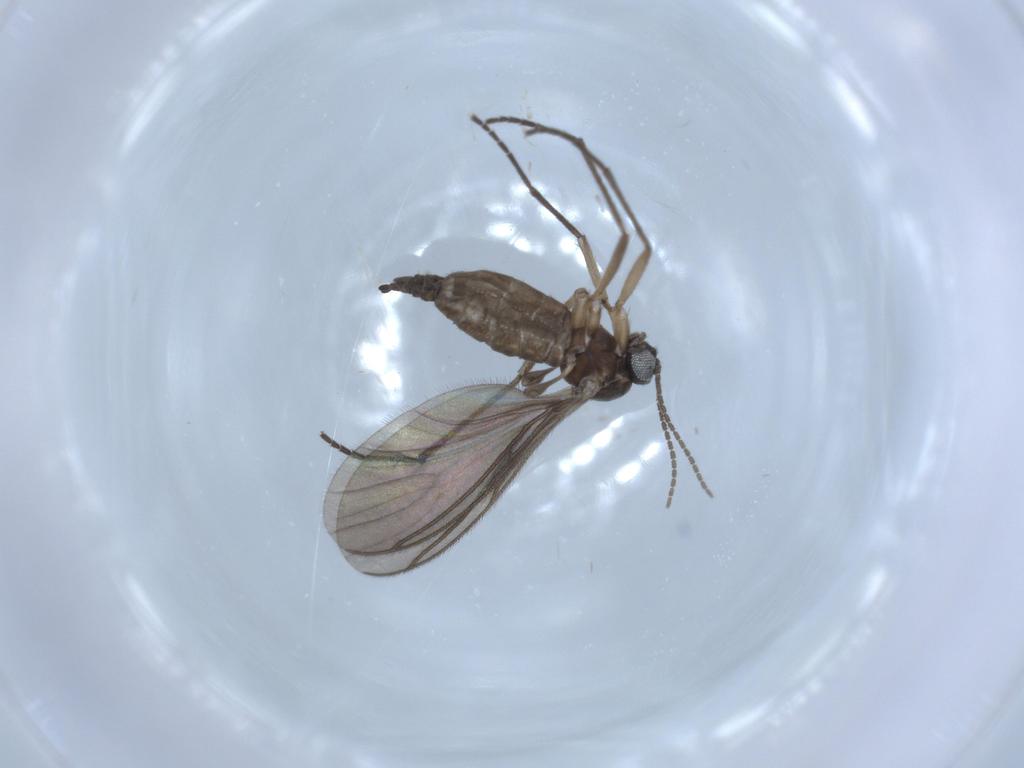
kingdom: Animalia
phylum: Arthropoda
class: Insecta
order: Diptera
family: Sciaridae
